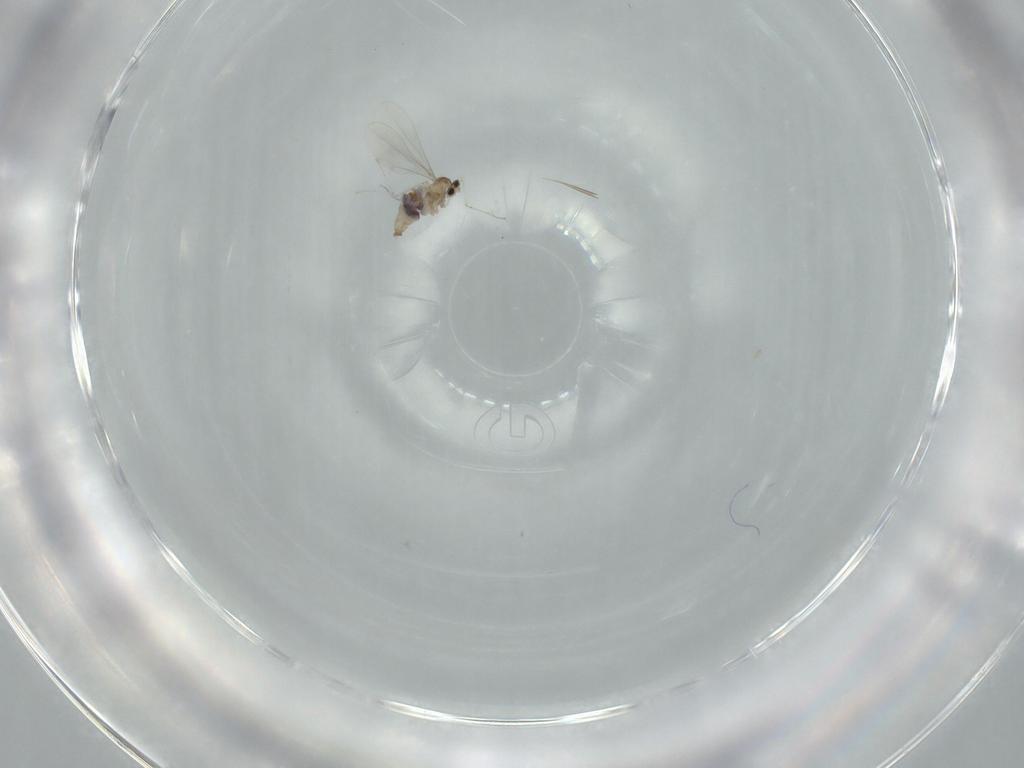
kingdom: Animalia
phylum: Arthropoda
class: Insecta
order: Diptera
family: Cecidomyiidae
